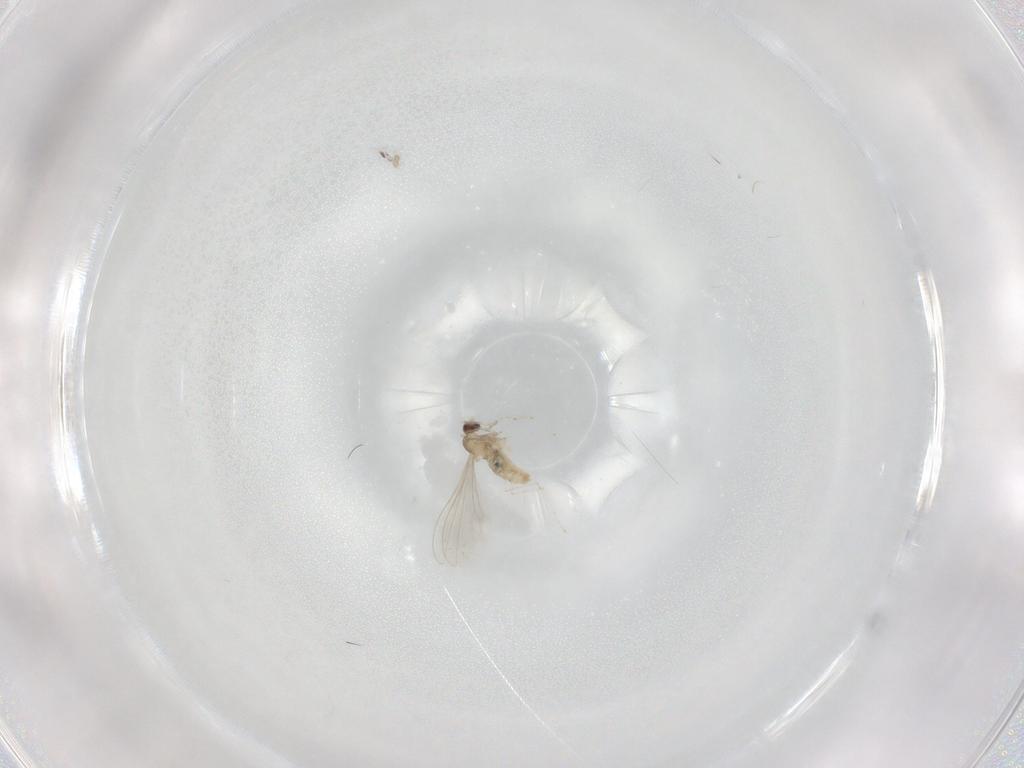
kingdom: Animalia
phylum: Arthropoda
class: Insecta
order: Diptera
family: Cecidomyiidae
